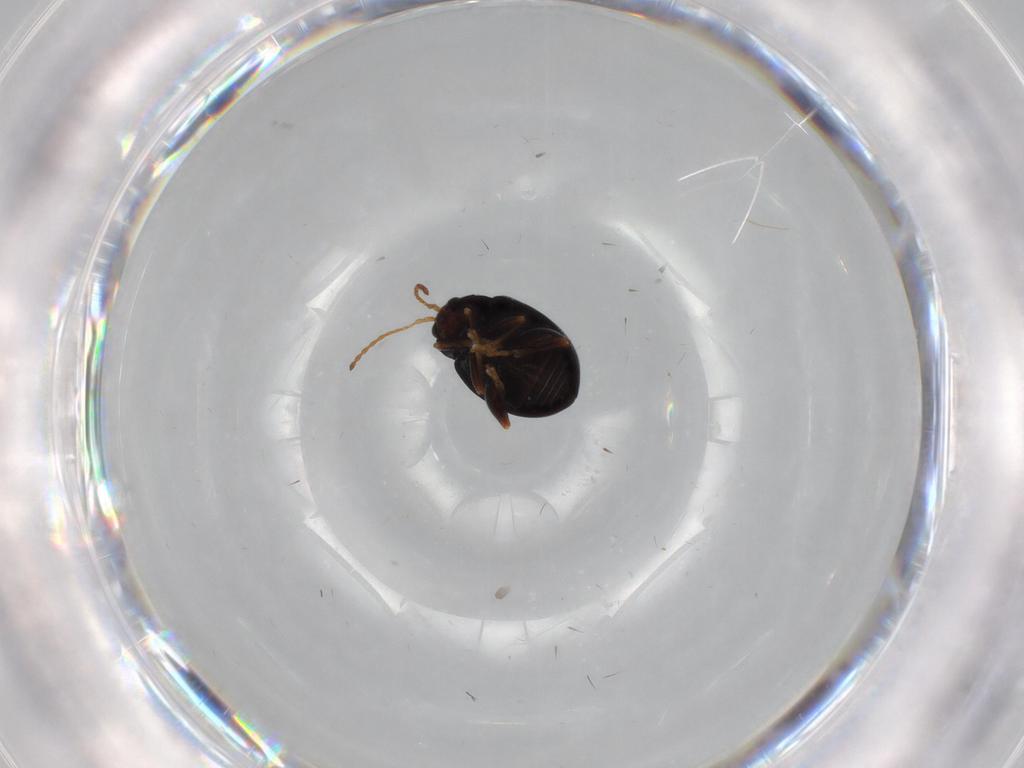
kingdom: Animalia
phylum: Arthropoda
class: Insecta
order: Coleoptera
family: Chrysomelidae
